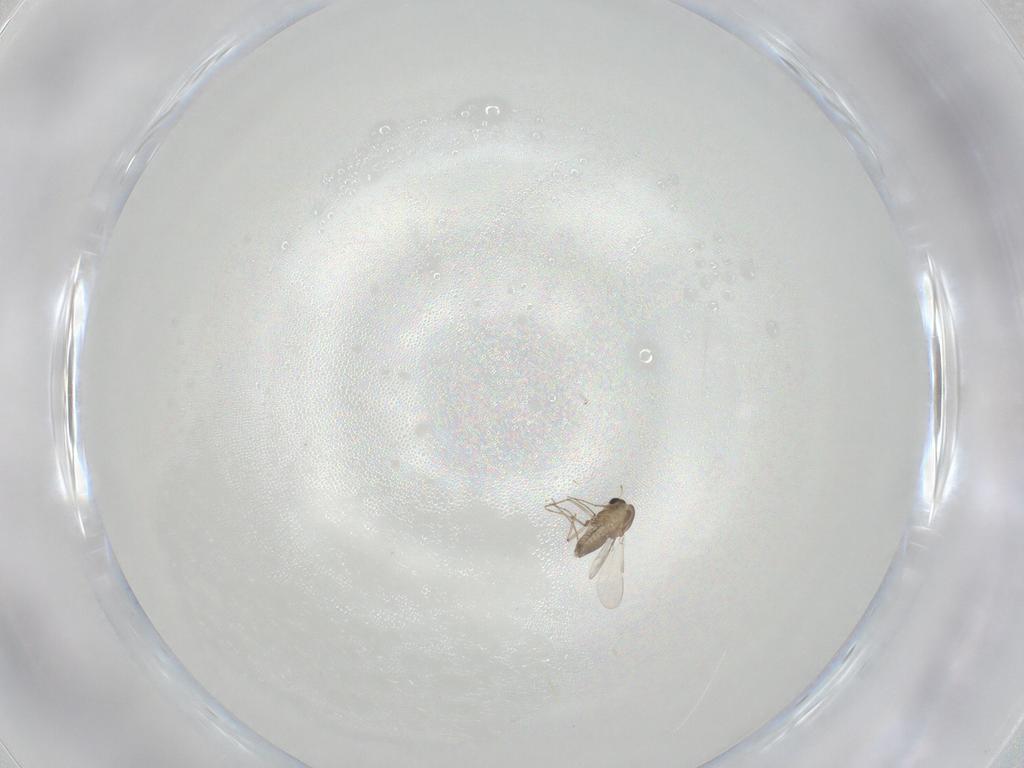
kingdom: Animalia
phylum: Arthropoda
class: Insecta
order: Diptera
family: Chironomidae
